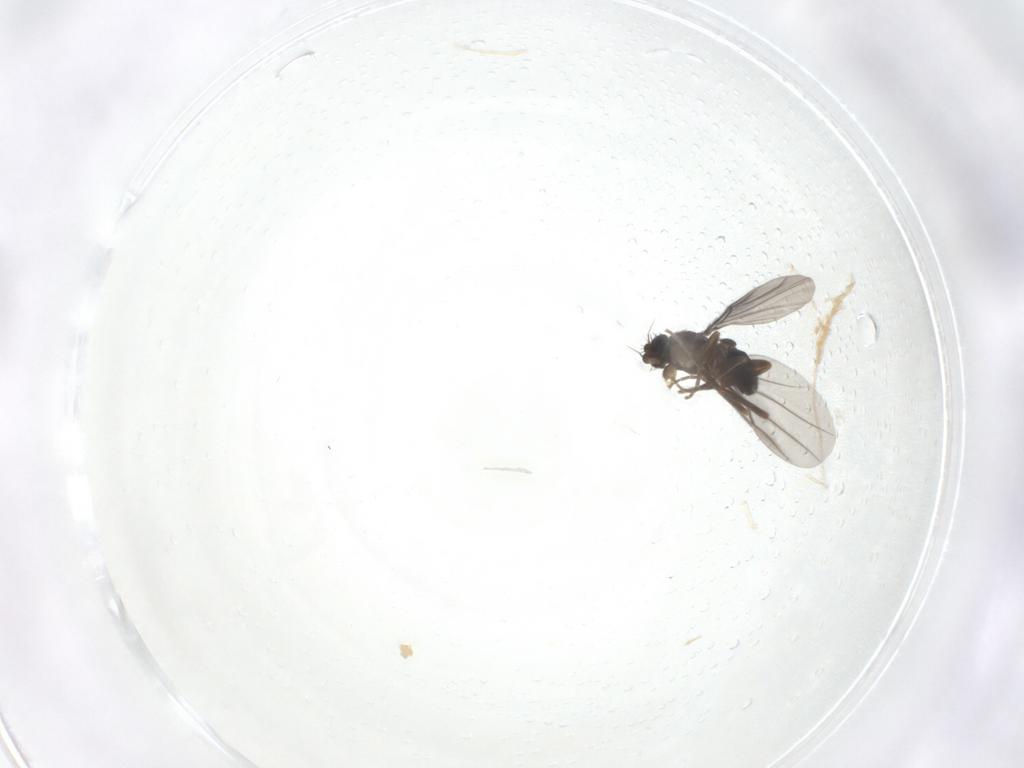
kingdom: Animalia
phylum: Arthropoda
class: Insecta
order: Diptera
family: Phoridae
